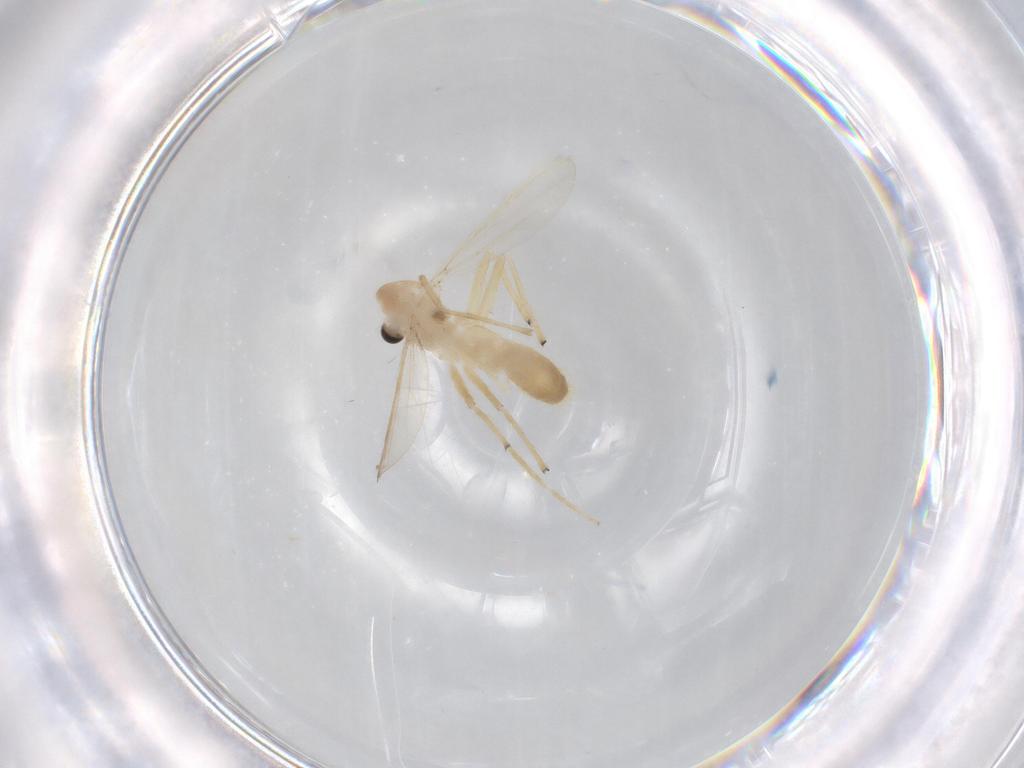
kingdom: Animalia
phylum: Arthropoda
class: Insecta
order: Diptera
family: Chironomidae
